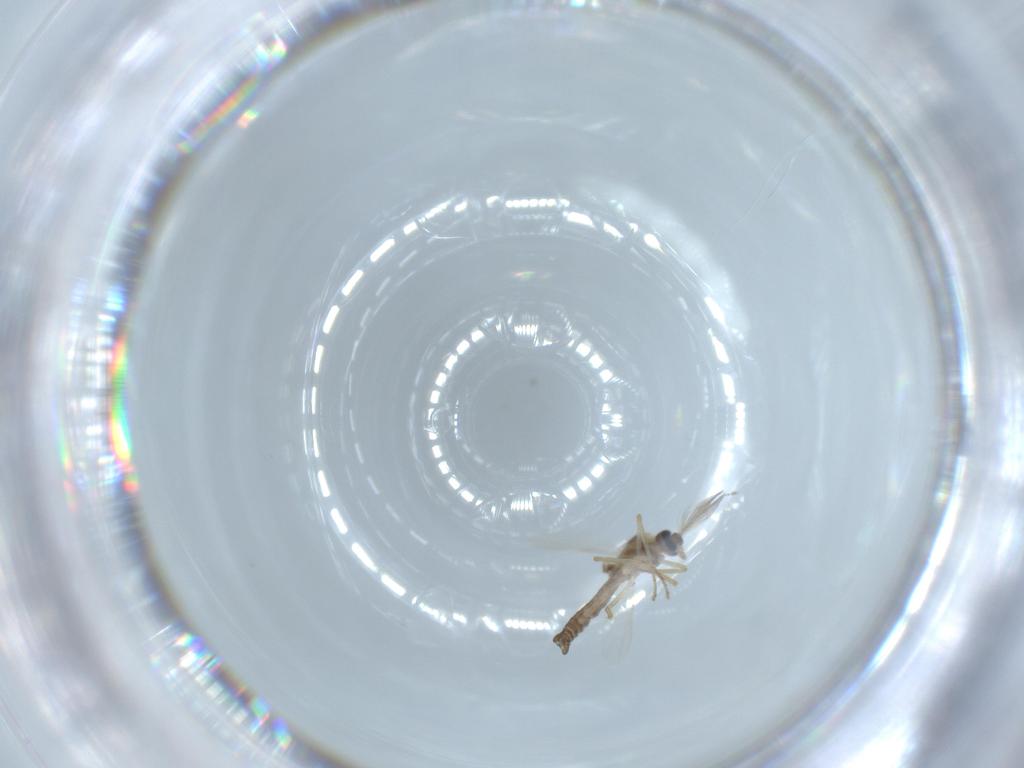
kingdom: Animalia
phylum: Arthropoda
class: Insecta
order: Diptera
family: Ceratopogonidae
